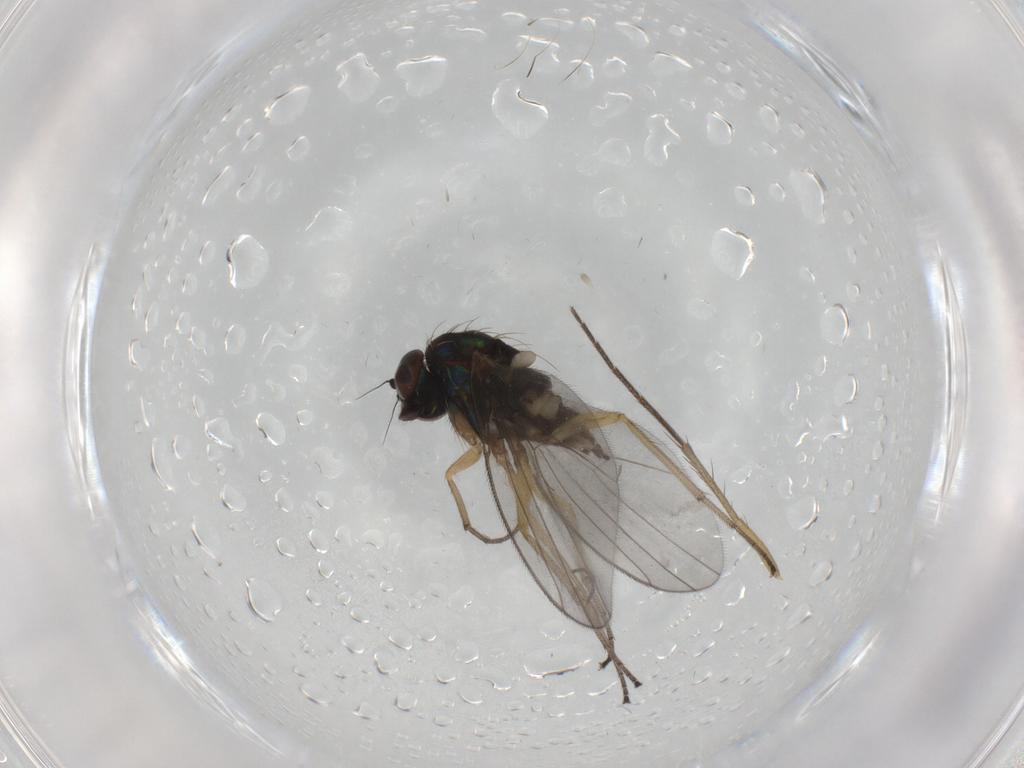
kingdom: Animalia
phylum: Arthropoda
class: Insecta
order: Diptera
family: Dolichopodidae
